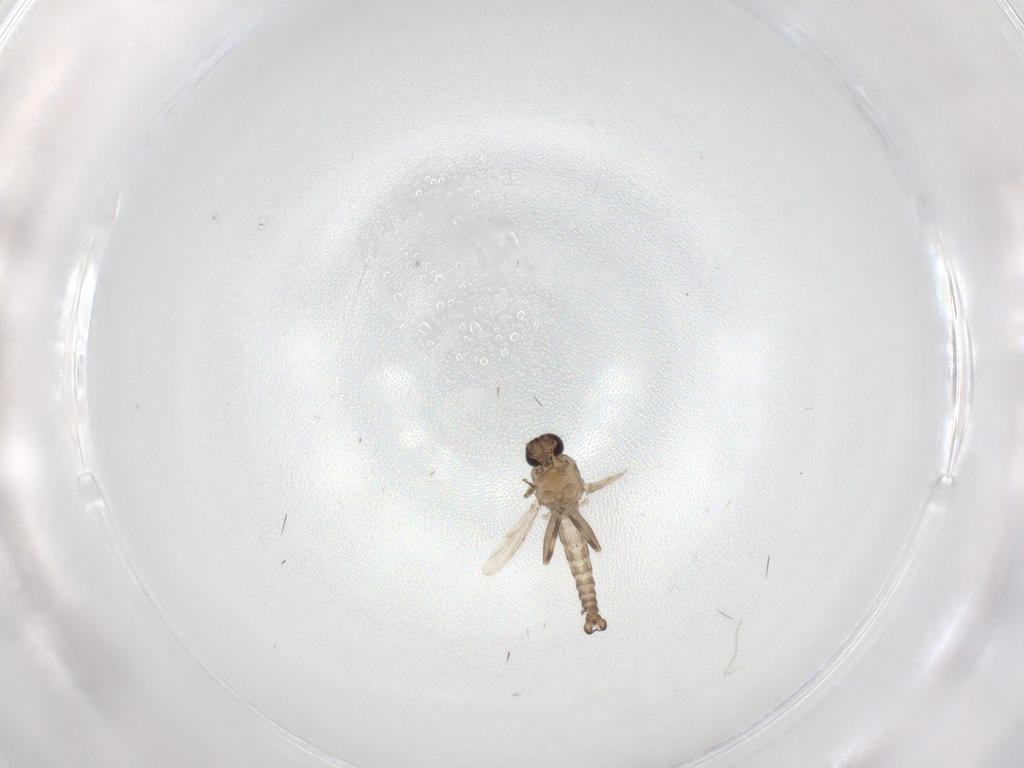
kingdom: Animalia
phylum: Arthropoda
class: Insecta
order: Diptera
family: Ceratopogonidae
